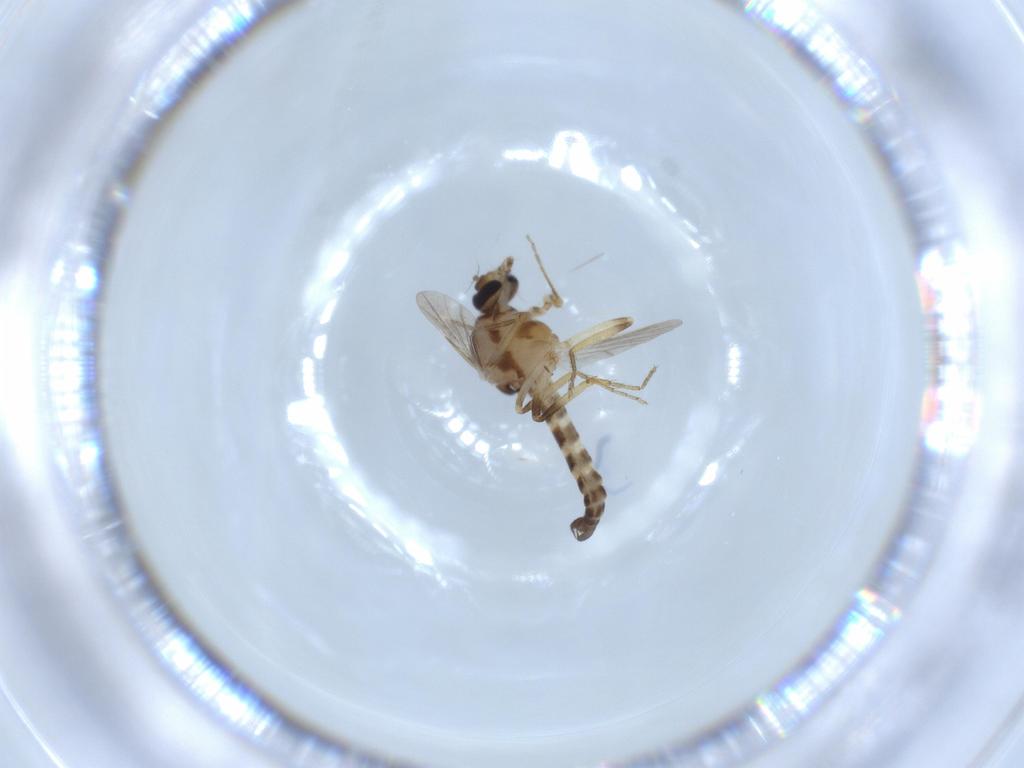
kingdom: Animalia
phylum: Arthropoda
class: Insecta
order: Diptera
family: Ceratopogonidae
